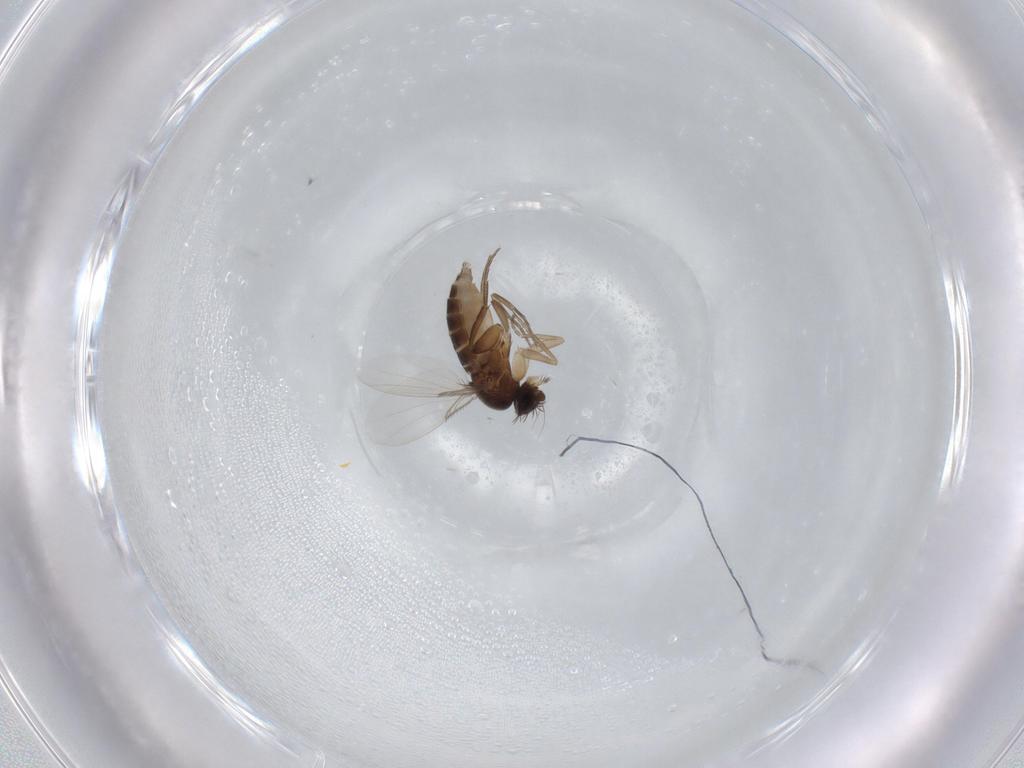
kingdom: Animalia
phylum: Arthropoda
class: Insecta
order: Diptera
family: Phoridae
